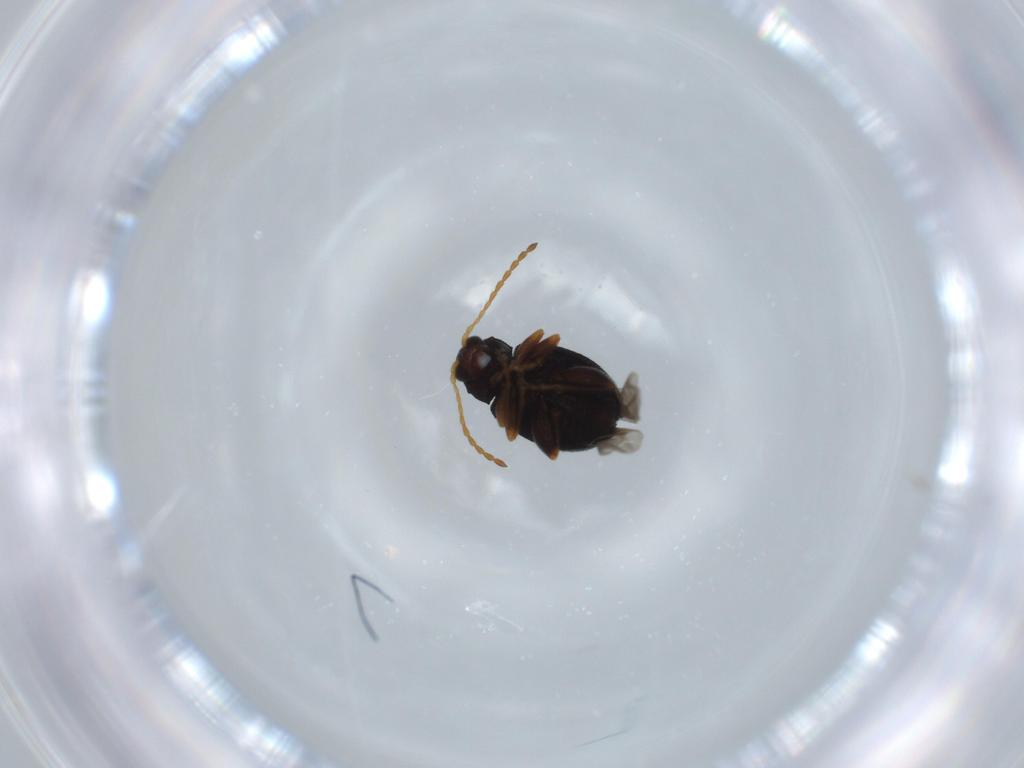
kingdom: Animalia
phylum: Arthropoda
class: Insecta
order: Coleoptera
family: Chrysomelidae
